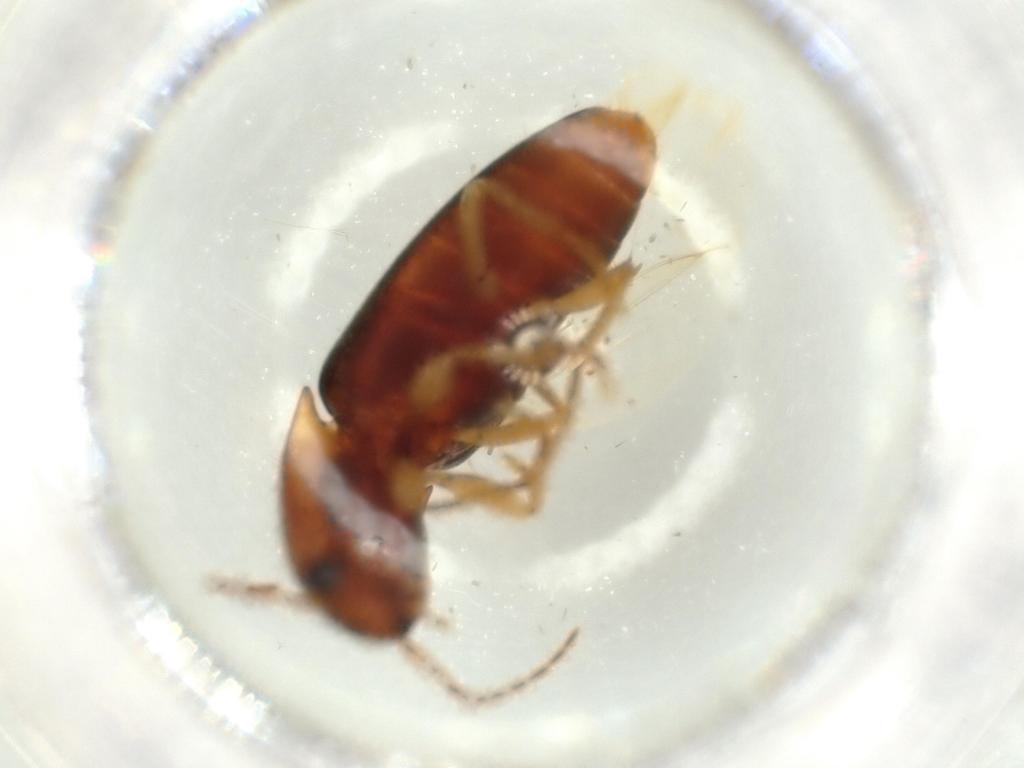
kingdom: Animalia
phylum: Arthropoda
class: Insecta
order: Coleoptera
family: Elateridae
